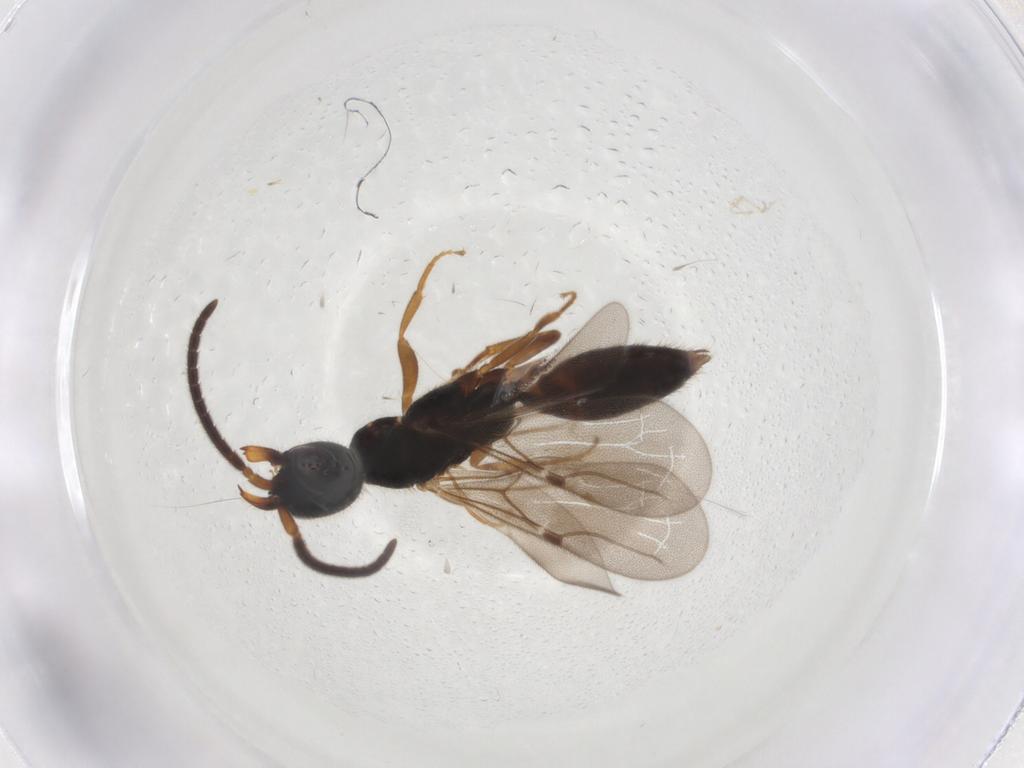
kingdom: Animalia
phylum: Arthropoda
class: Insecta
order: Hymenoptera
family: Bethylidae
